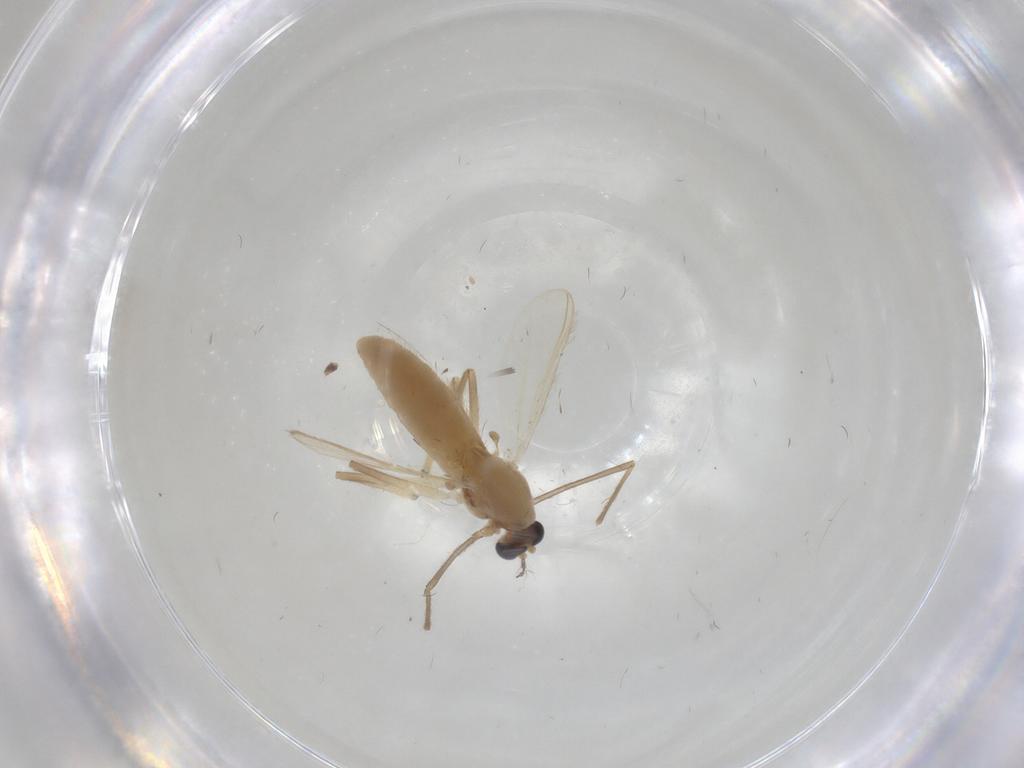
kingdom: Animalia
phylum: Arthropoda
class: Insecta
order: Diptera
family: Chironomidae
